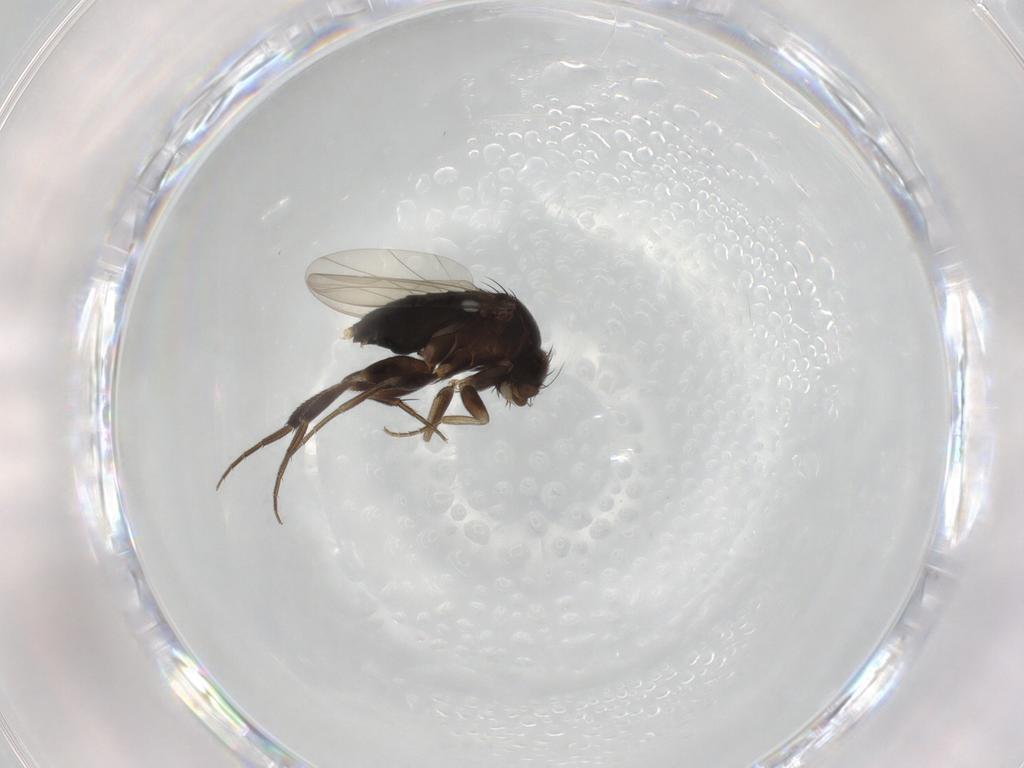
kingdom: Animalia
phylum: Arthropoda
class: Insecta
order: Diptera
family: Phoridae
